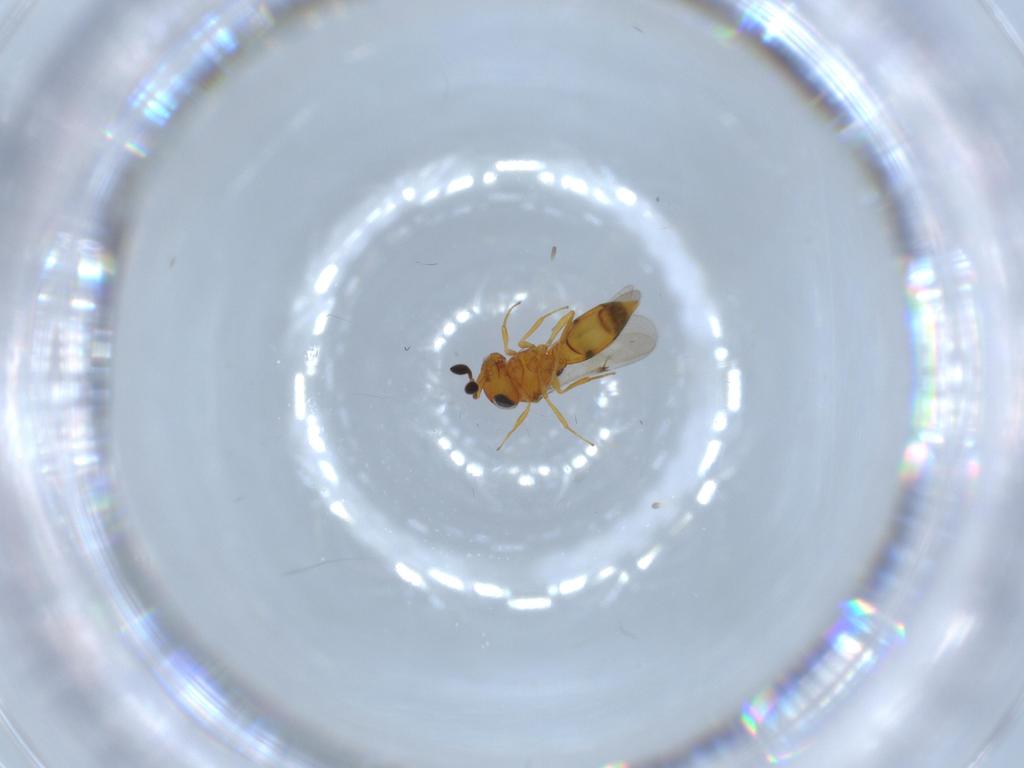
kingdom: Animalia
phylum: Arthropoda
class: Insecta
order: Hymenoptera
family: Scelionidae
